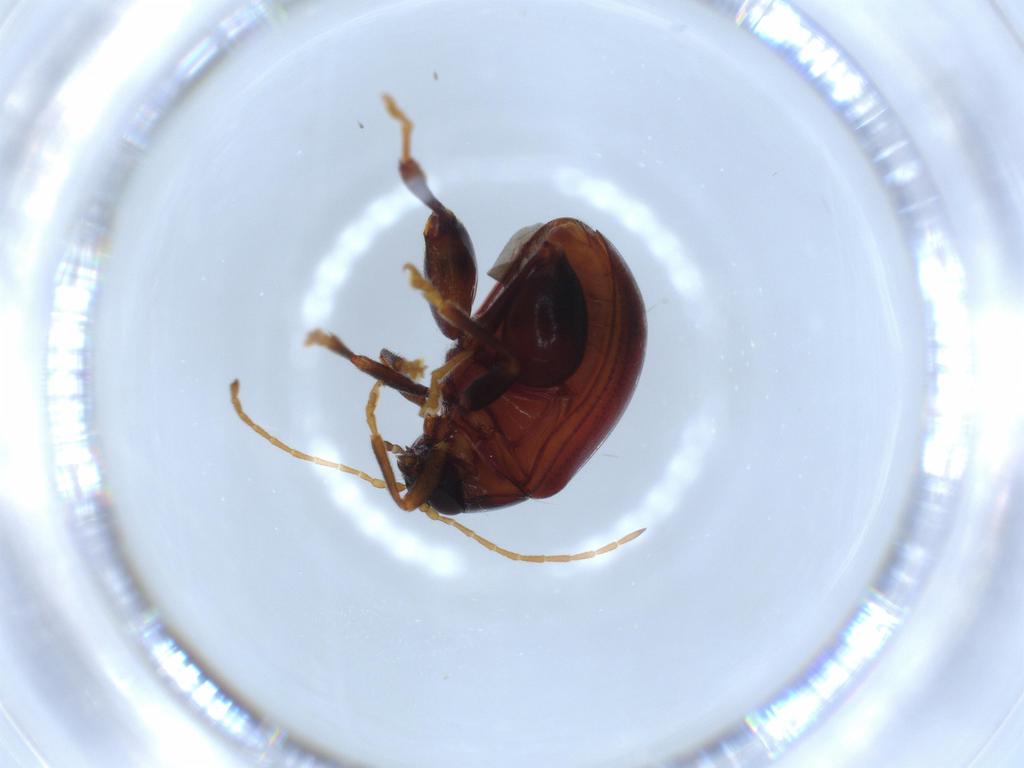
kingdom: Animalia
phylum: Arthropoda
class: Insecta
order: Coleoptera
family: Chrysomelidae
